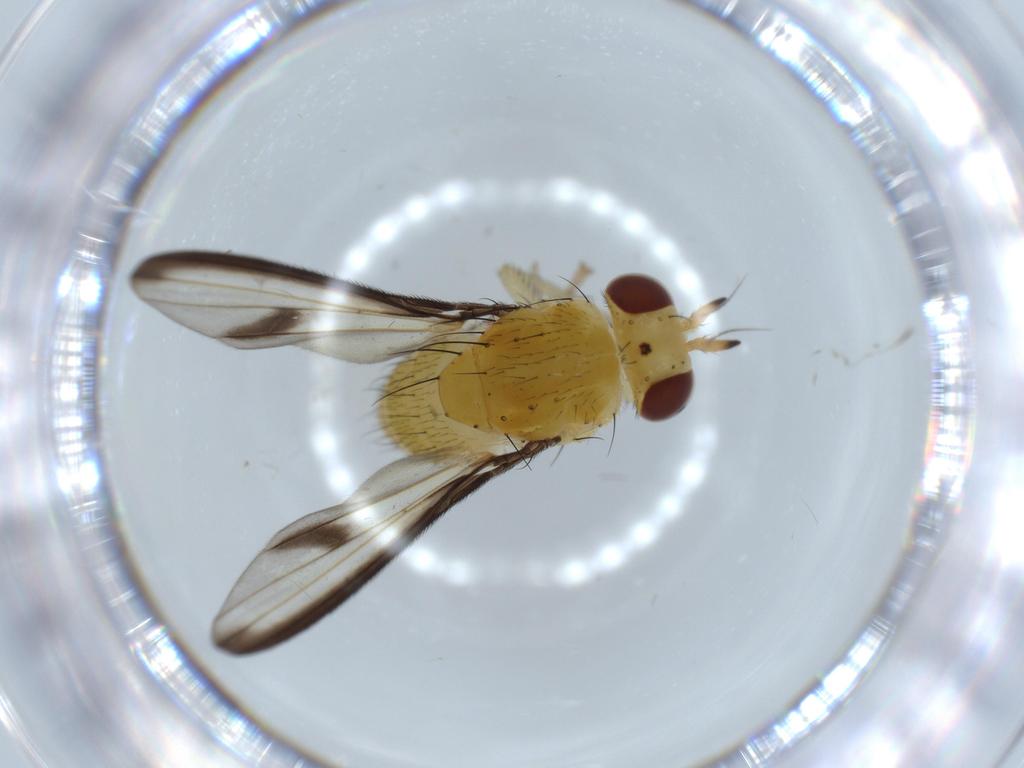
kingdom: Animalia
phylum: Arthropoda
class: Insecta
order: Diptera
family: Lauxaniidae
